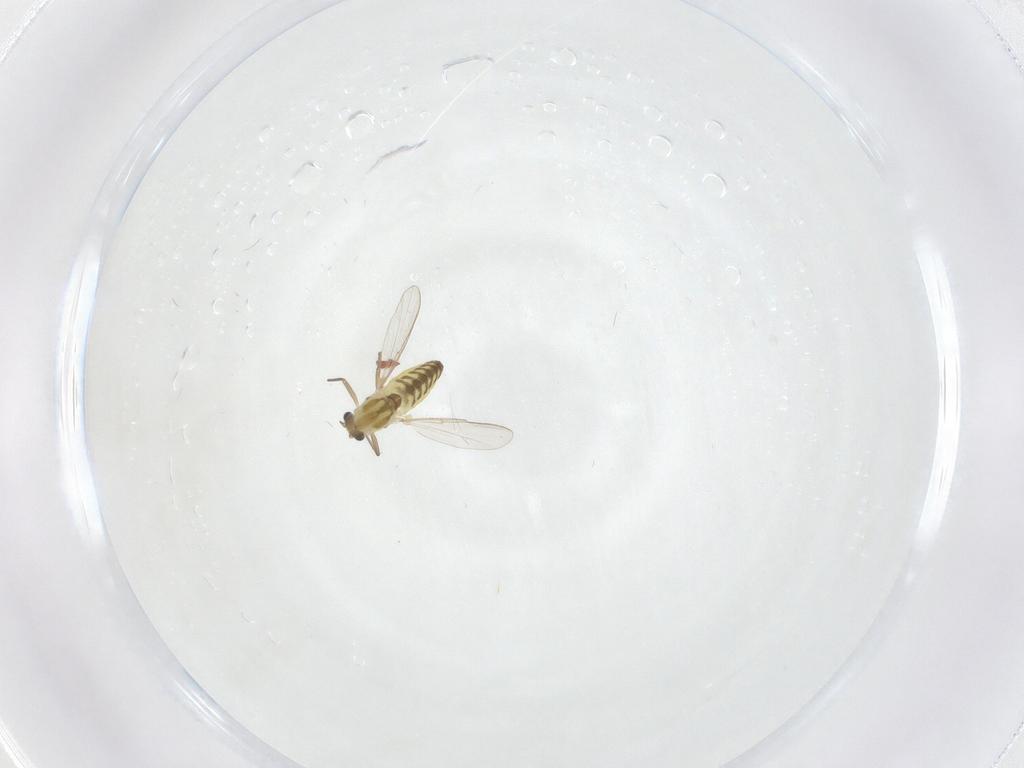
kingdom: Animalia
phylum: Arthropoda
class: Insecta
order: Diptera
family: Chironomidae
